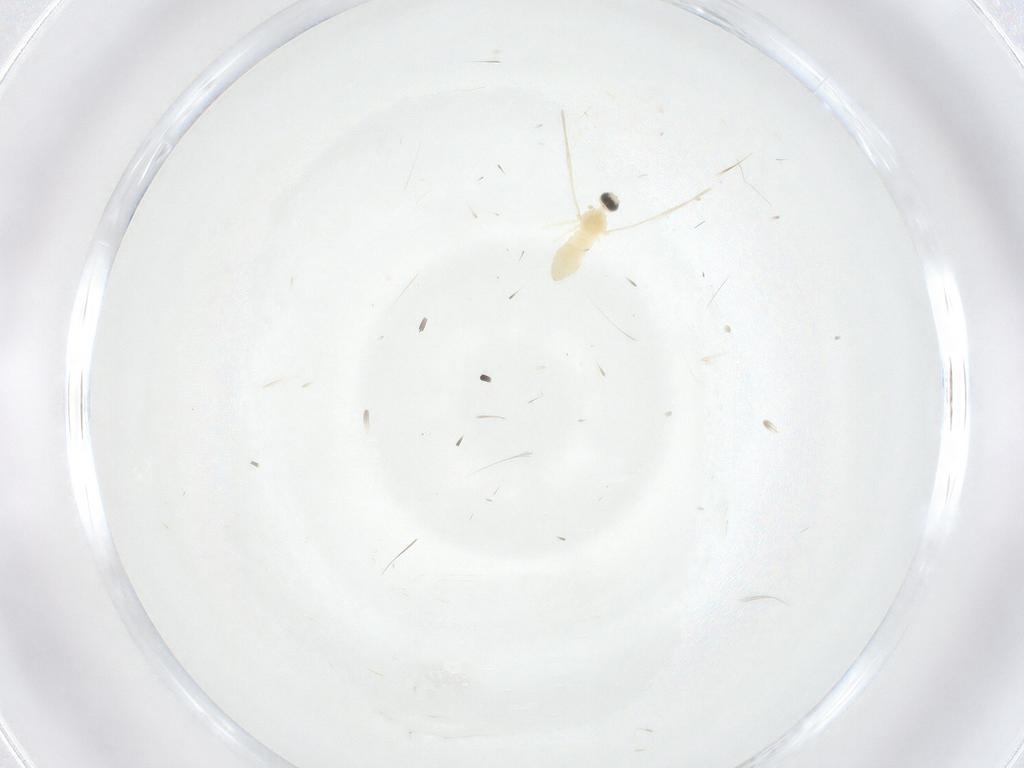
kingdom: Animalia
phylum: Arthropoda
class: Insecta
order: Diptera
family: Cecidomyiidae
